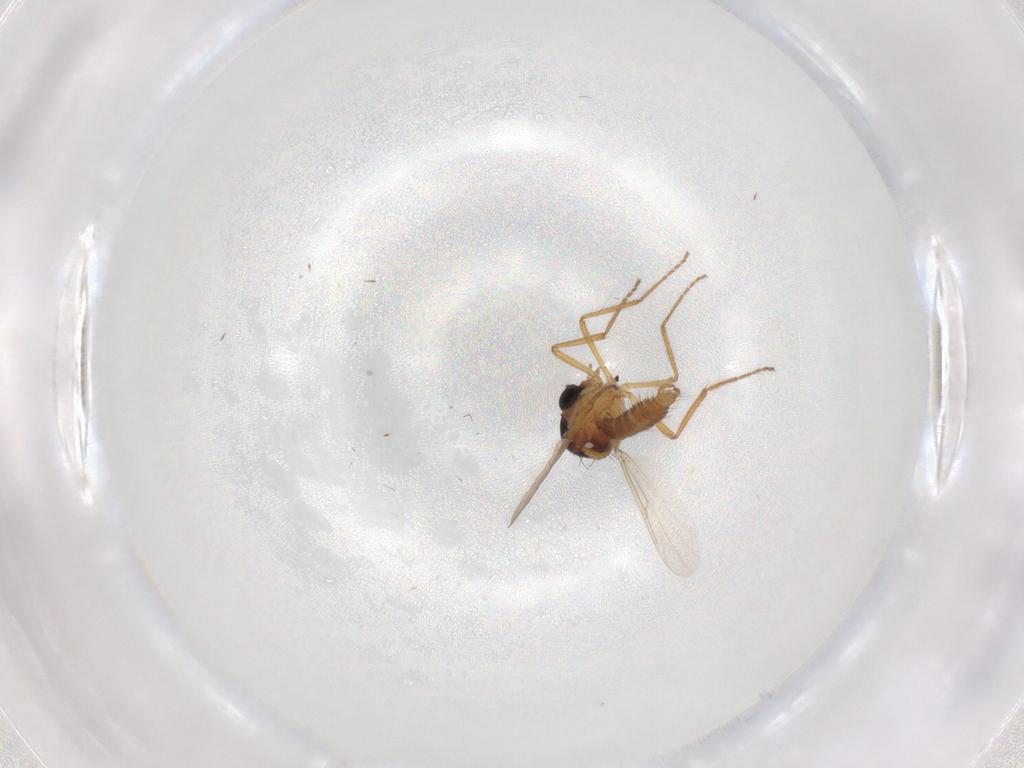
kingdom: Animalia
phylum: Arthropoda
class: Insecta
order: Diptera
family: Ceratopogonidae
